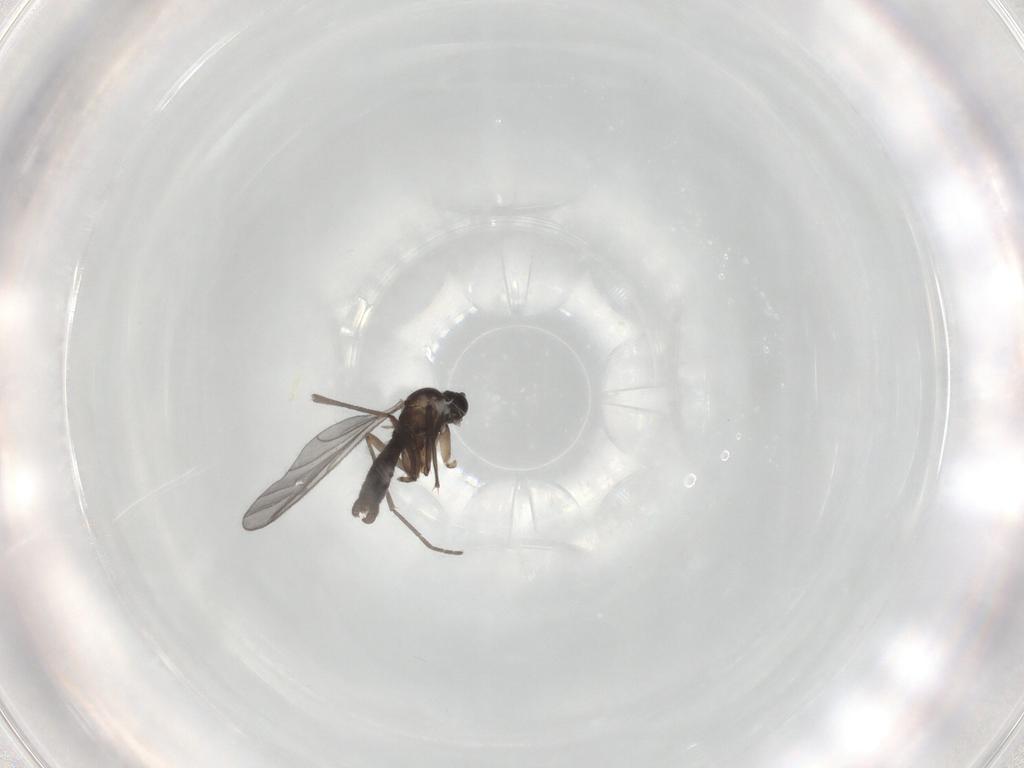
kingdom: Animalia
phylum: Arthropoda
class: Insecta
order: Diptera
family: Sciaridae
